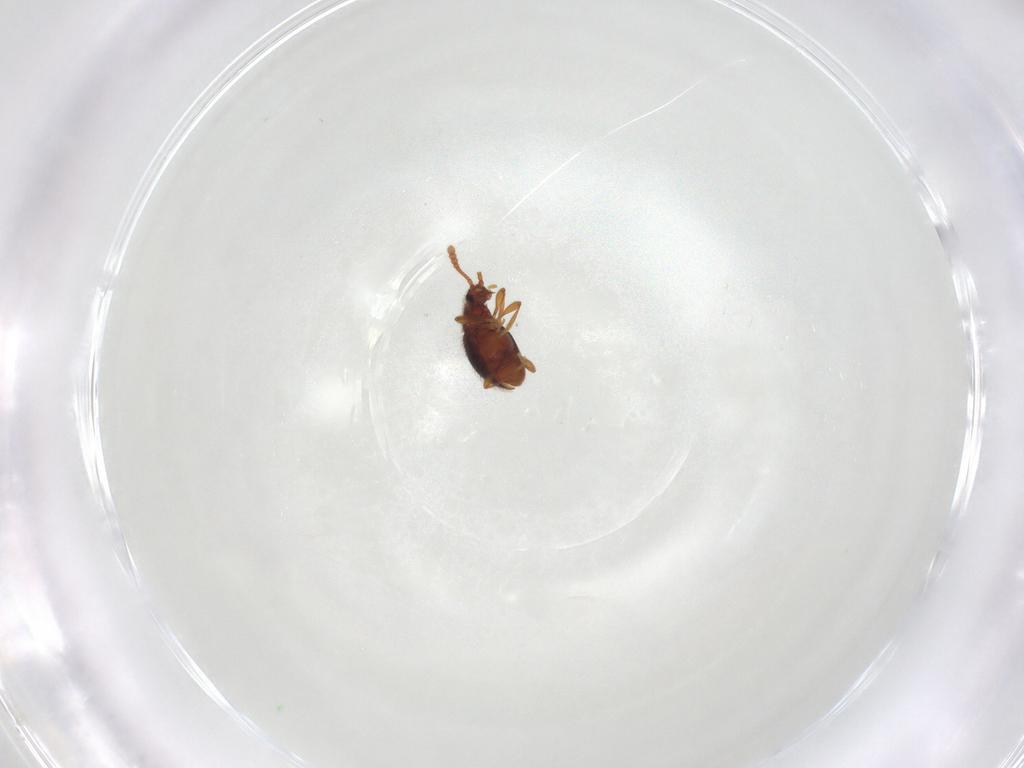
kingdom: Animalia
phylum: Arthropoda
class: Insecta
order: Coleoptera
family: Staphylinidae
